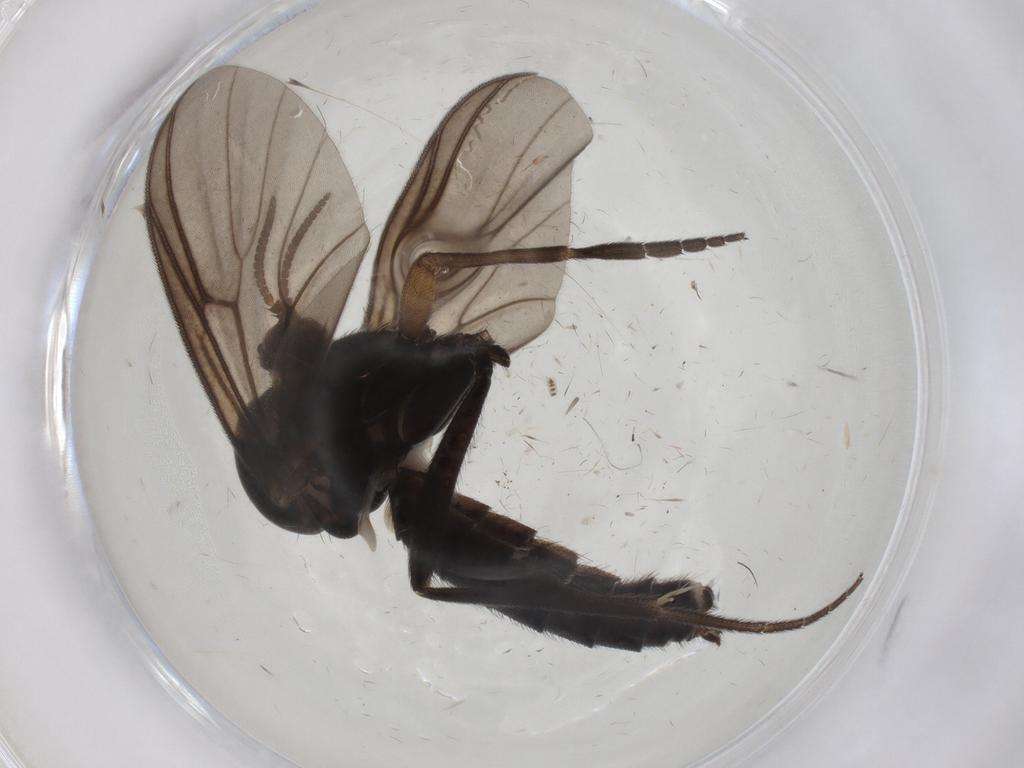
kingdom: Animalia
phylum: Arthropoda
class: Insecta
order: Diptera
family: Mycetophilidae
